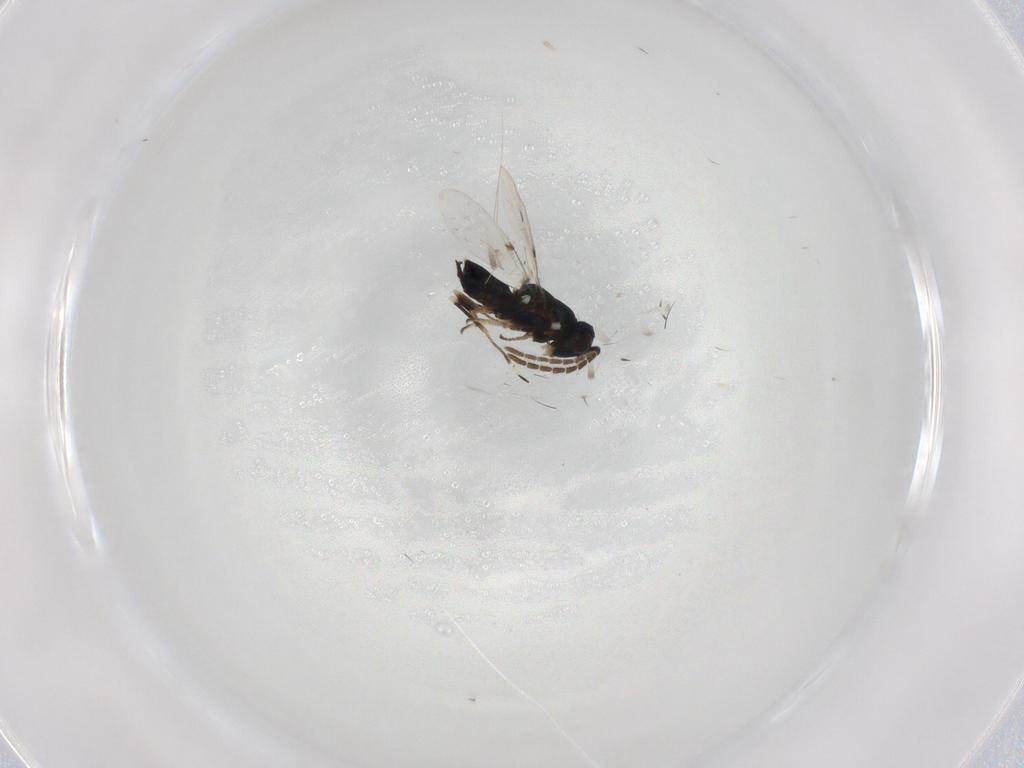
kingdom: Animalia
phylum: Arthropoda
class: Insecta
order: Hymenoptera
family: Encyrtidae
